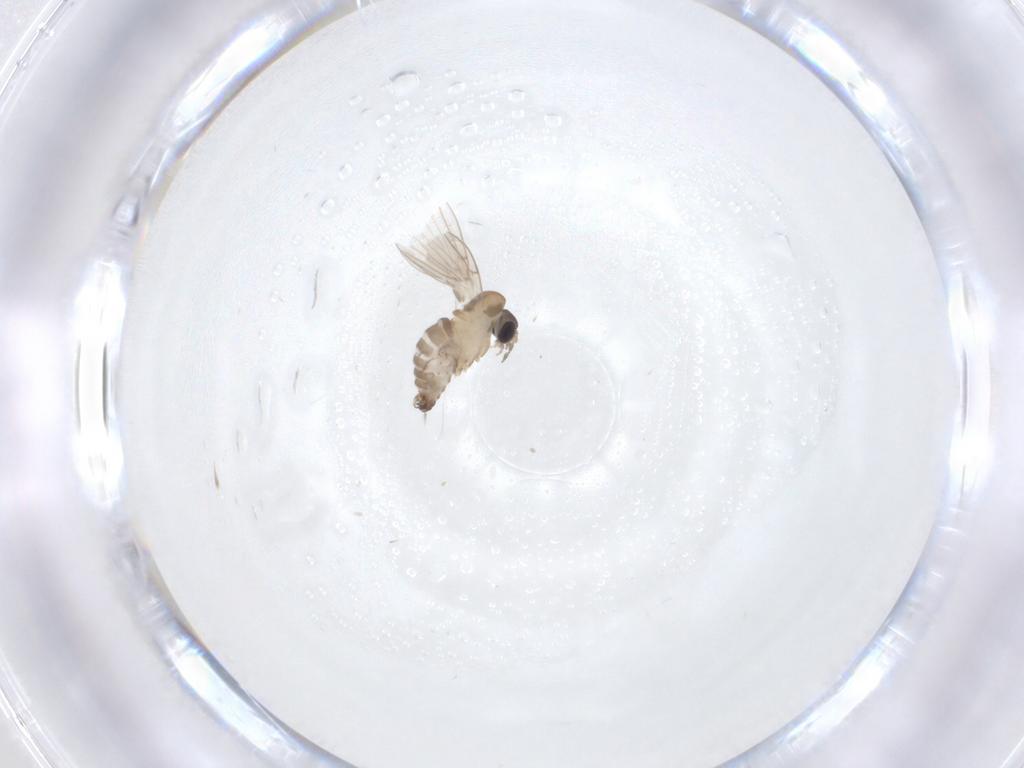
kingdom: Animalia
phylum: Arthropoda
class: Insecta
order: Diptera
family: Psychodidae
